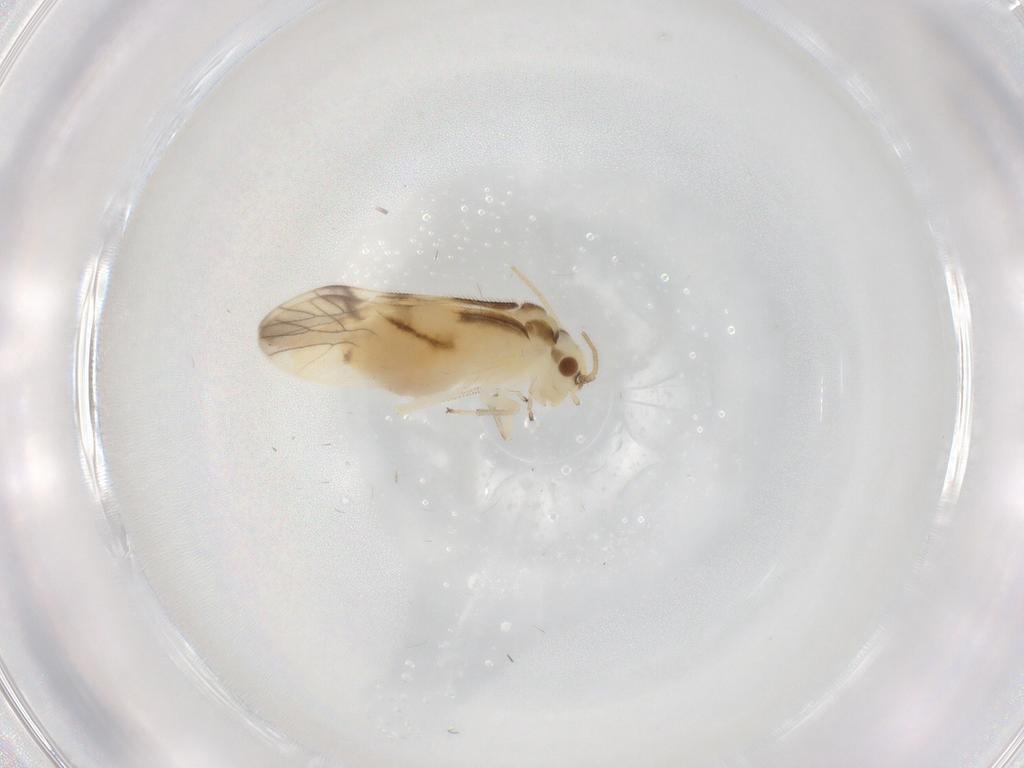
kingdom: Animalia
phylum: Arthropoda
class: Insecta
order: Psocodea
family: Caeciliusidae
